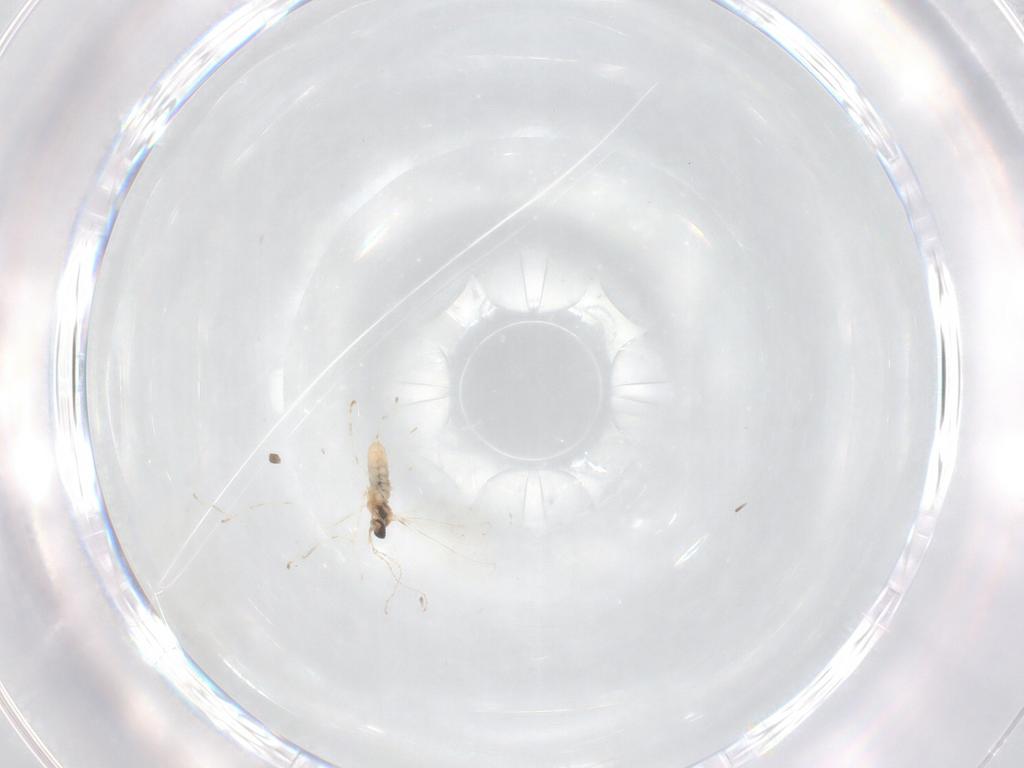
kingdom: Animalia
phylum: Arthropoda
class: Insecta
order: Diptera
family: Cecidomyiidae
